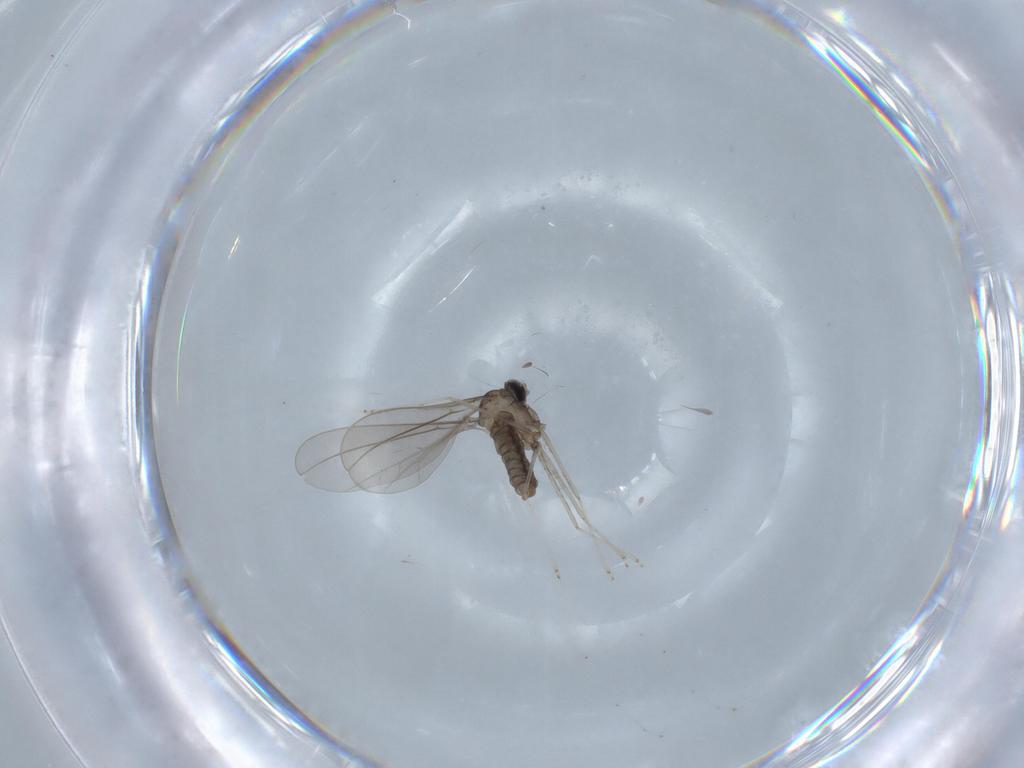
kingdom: Animalia
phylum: Arthropoda
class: Insecta
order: Diptera
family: Cecidomyiidae
